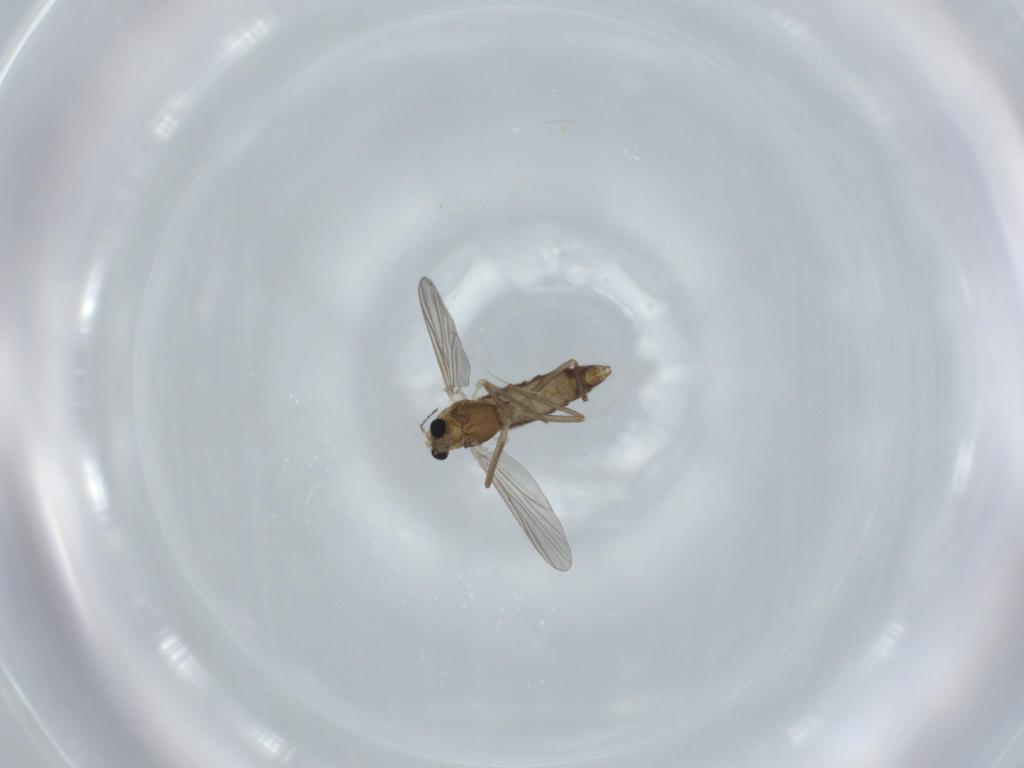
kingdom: Animalia
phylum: Arthropoda
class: Insecta
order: Diptera
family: Chironomidae
